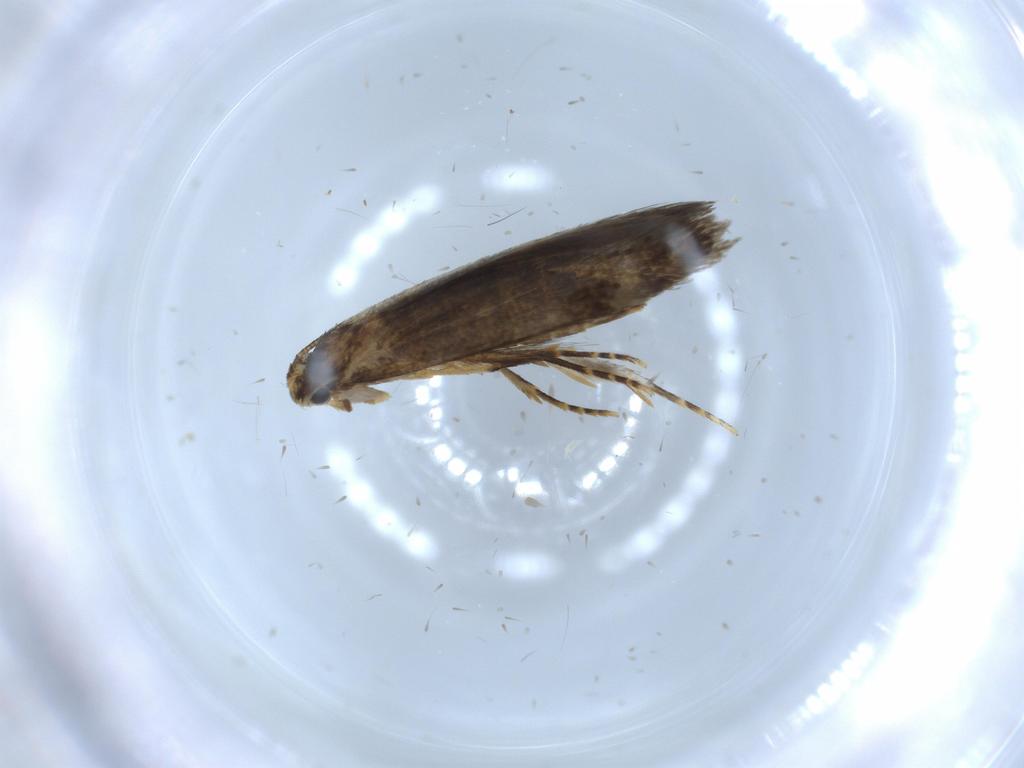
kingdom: Animalia
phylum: Arthropoda
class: Insecta
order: Lepidoptera
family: Tineidae
